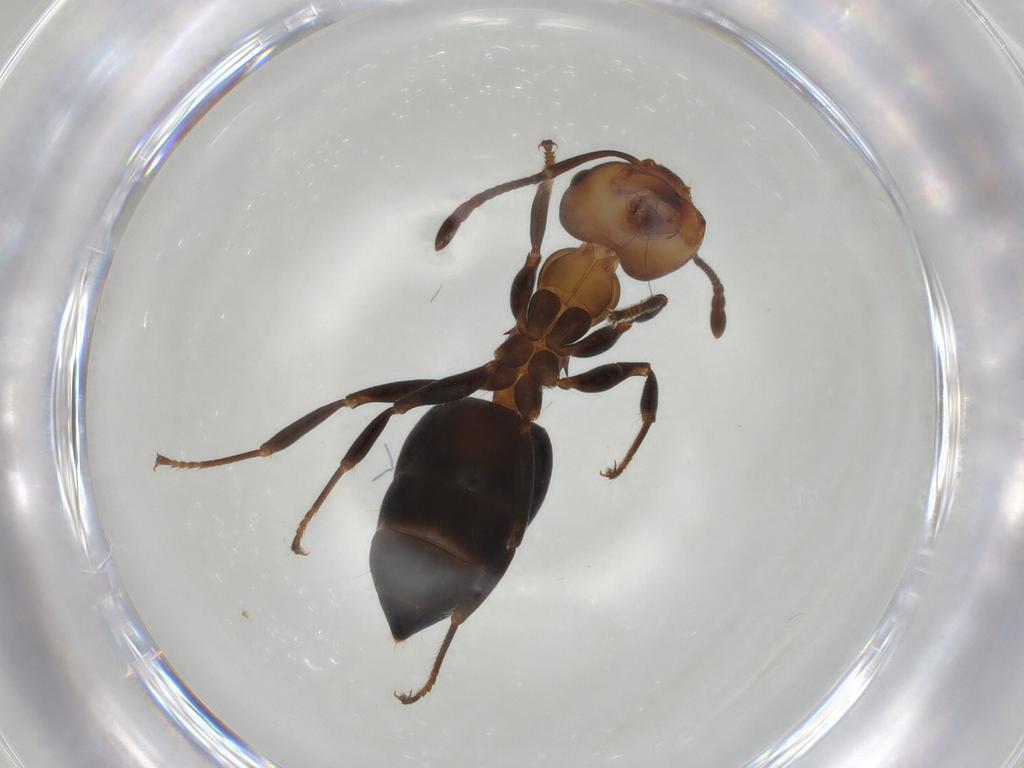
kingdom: Animalia
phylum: Arthropoda
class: Insecta
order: Hymenoptera
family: Formicidae
